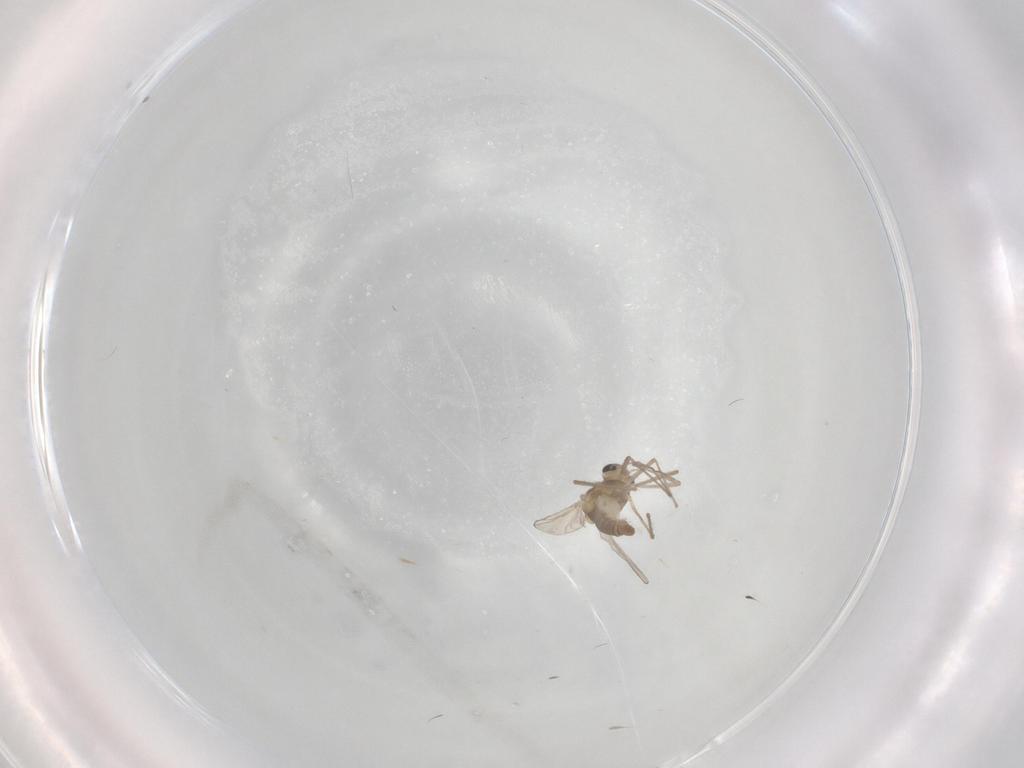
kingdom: Animalia
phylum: Arthropoda
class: Insecta
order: Diptera
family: Chironomidae
